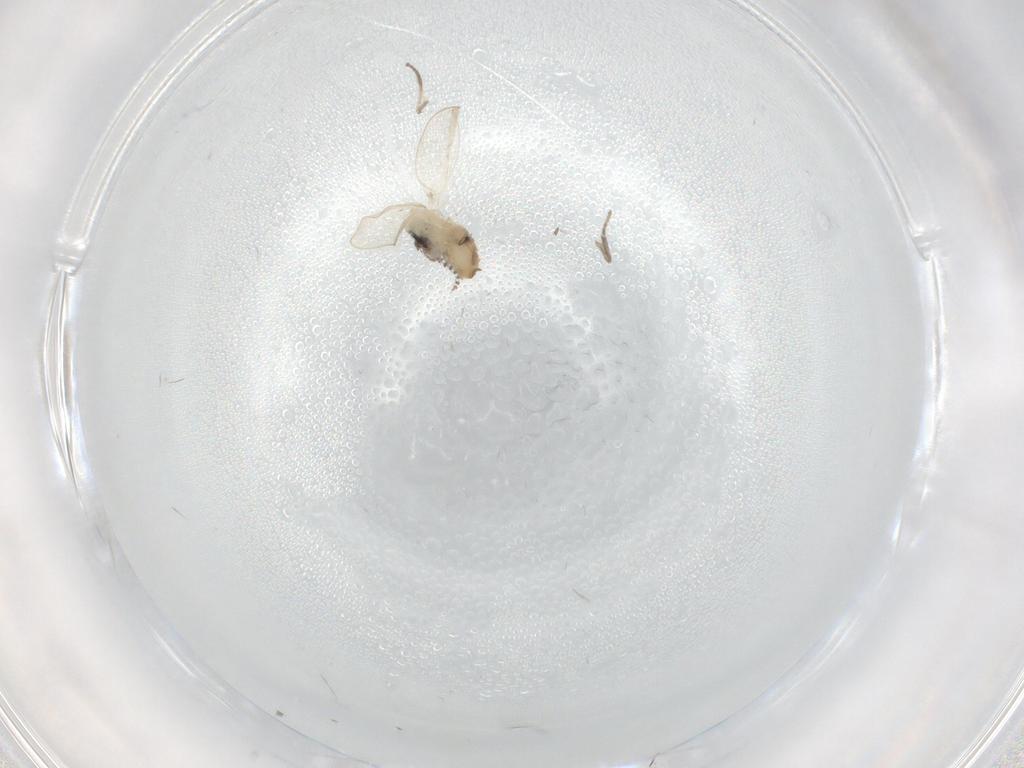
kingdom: Animalia
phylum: Arthropoda
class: Insecta
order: Diptera
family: Psychodidae
